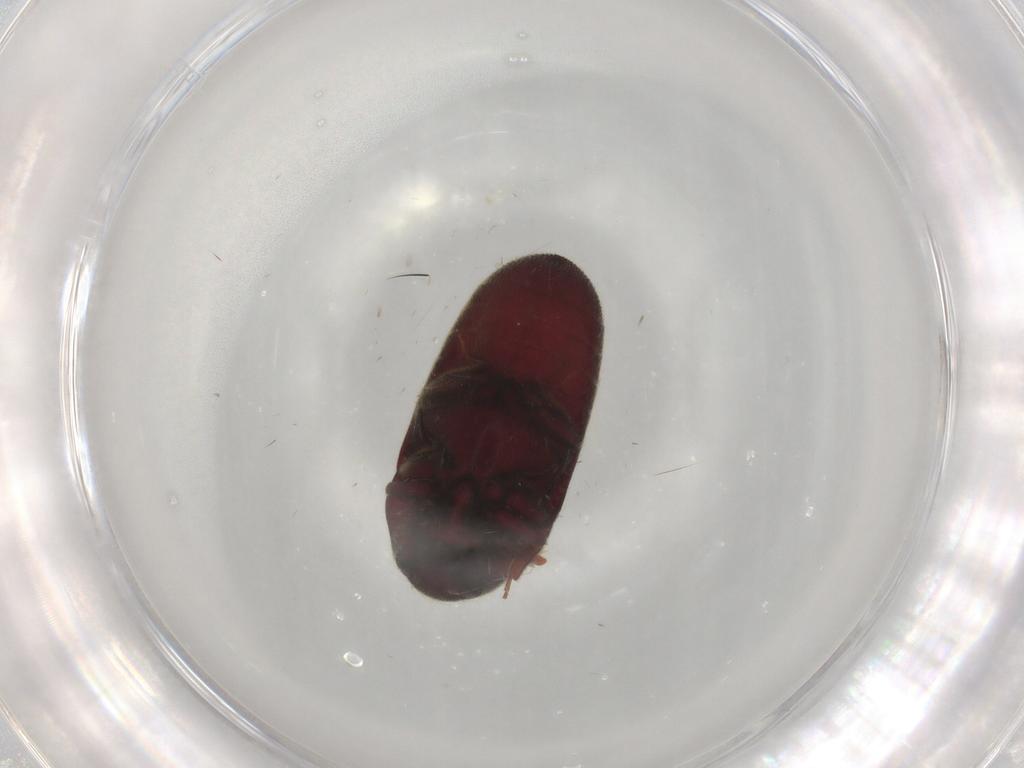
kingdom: Animalia
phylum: Arthropoda
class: Insecta
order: Coleoptera
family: Throscidae
